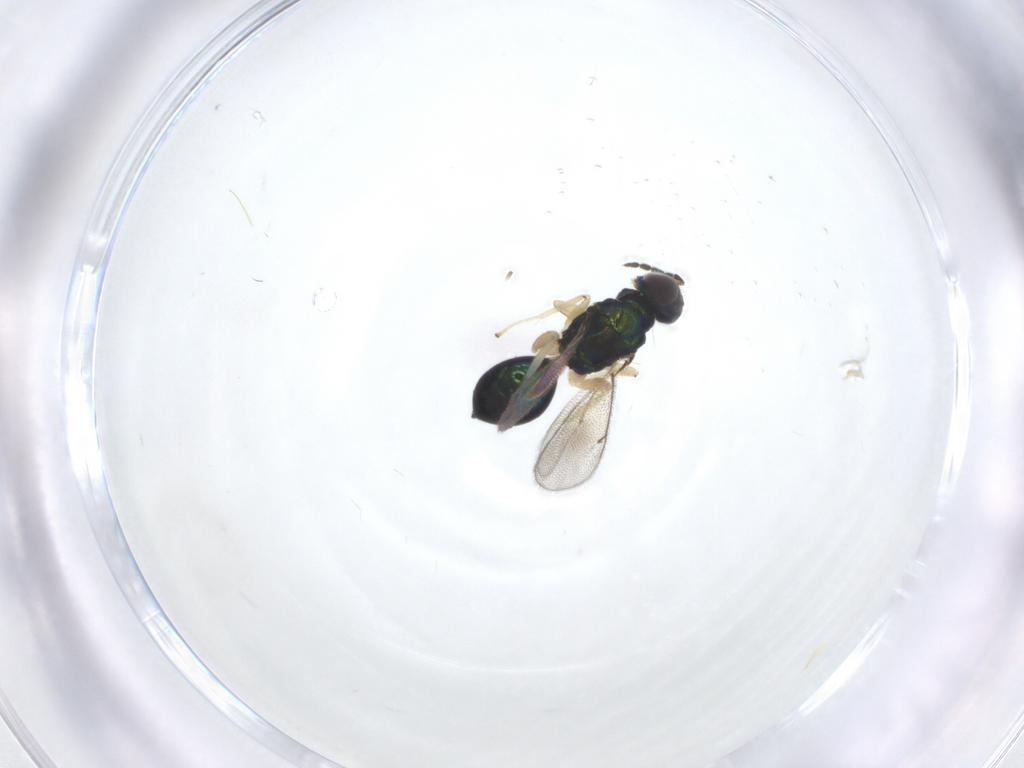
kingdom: Animalia
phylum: Arthropoda
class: Insecta
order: Hymenoptera
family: Eulophidae
